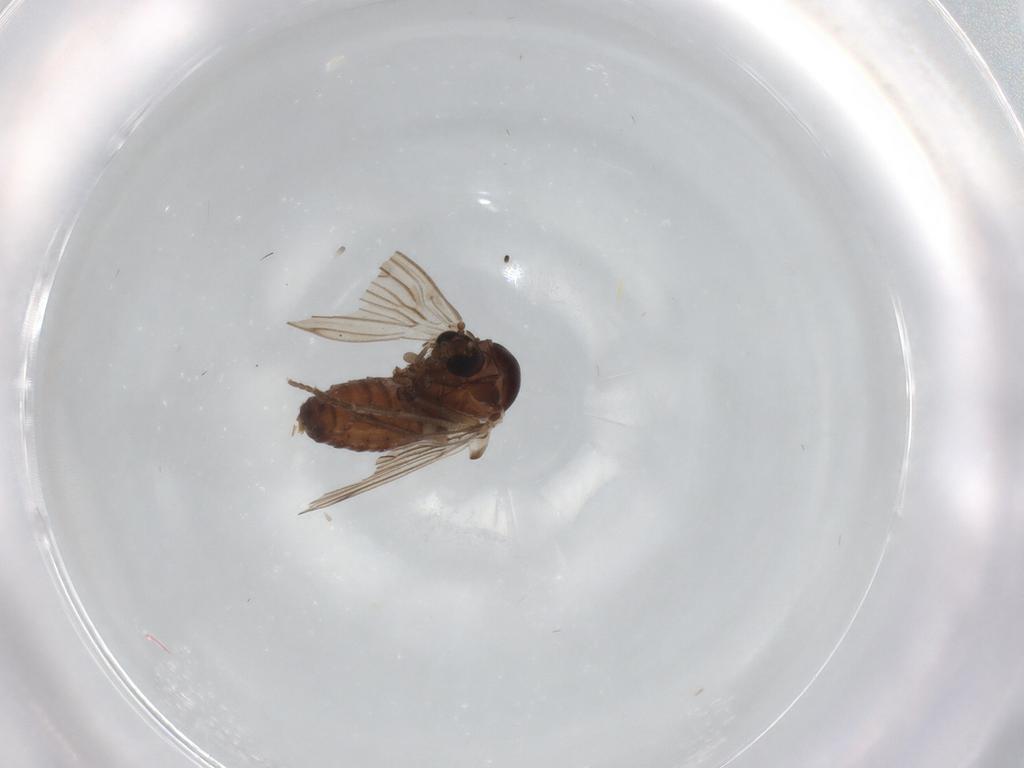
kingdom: Animalia
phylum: Arthropoda
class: Insecta
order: Diptera
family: Psychodidae
